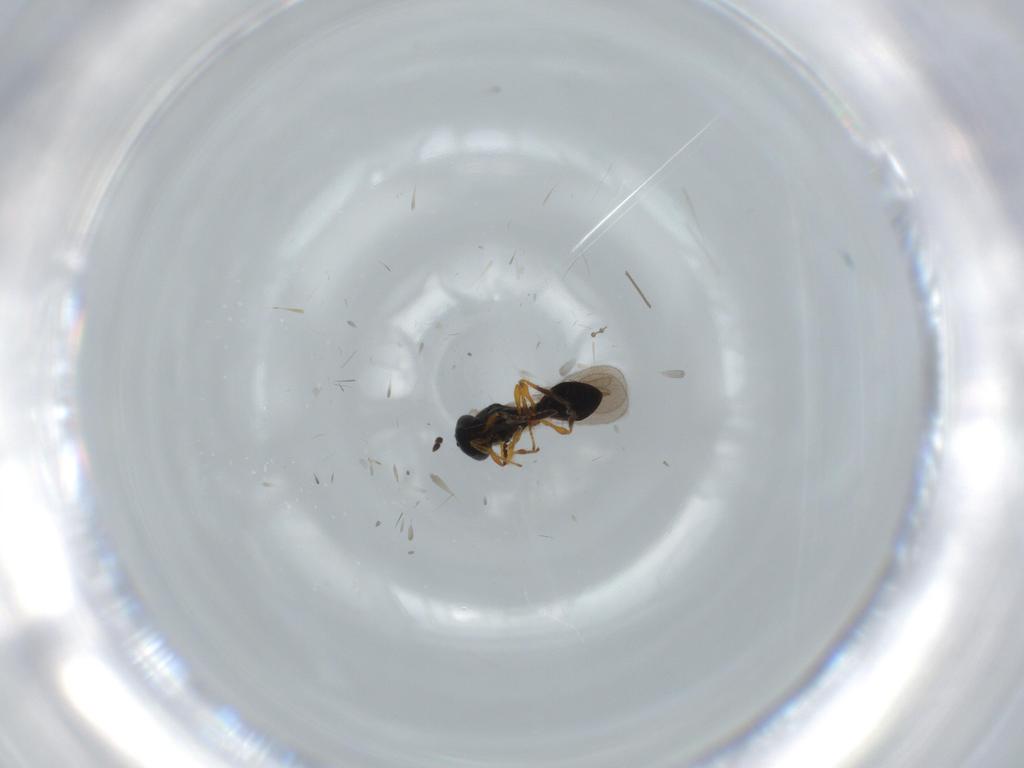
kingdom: Animalia
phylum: Arthropoda
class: Insecta
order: Hymenoptera
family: Platygastridae
